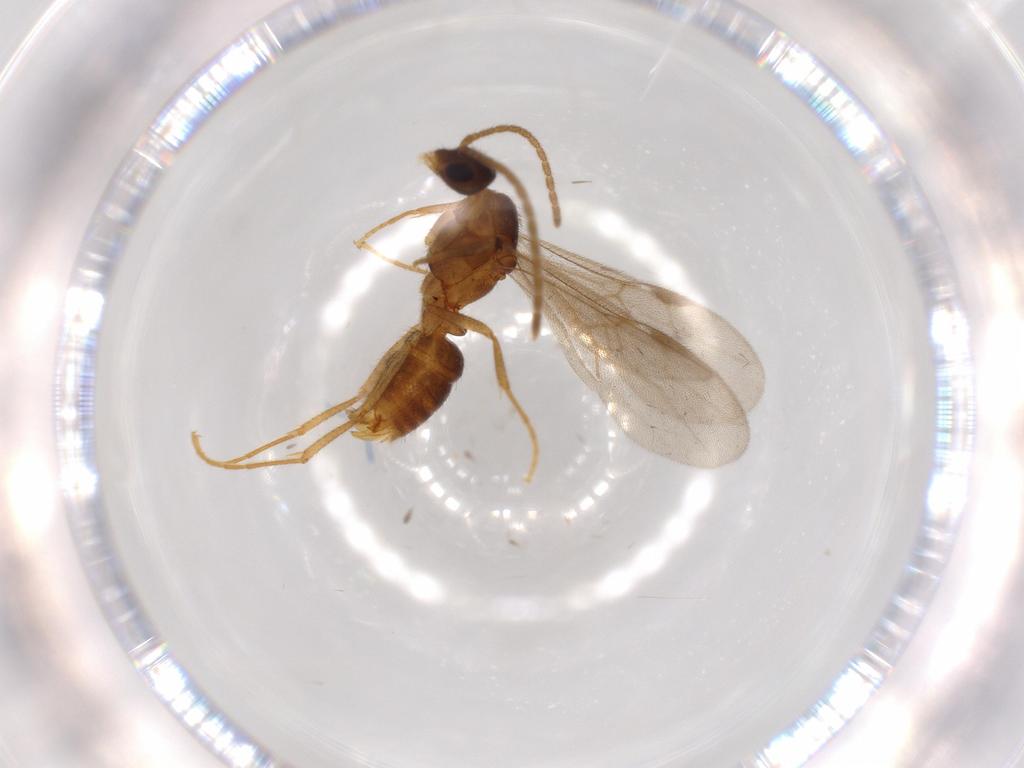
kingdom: Animalia
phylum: Arthropoda
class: Insecta
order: Hymenoptera
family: Formicidae
